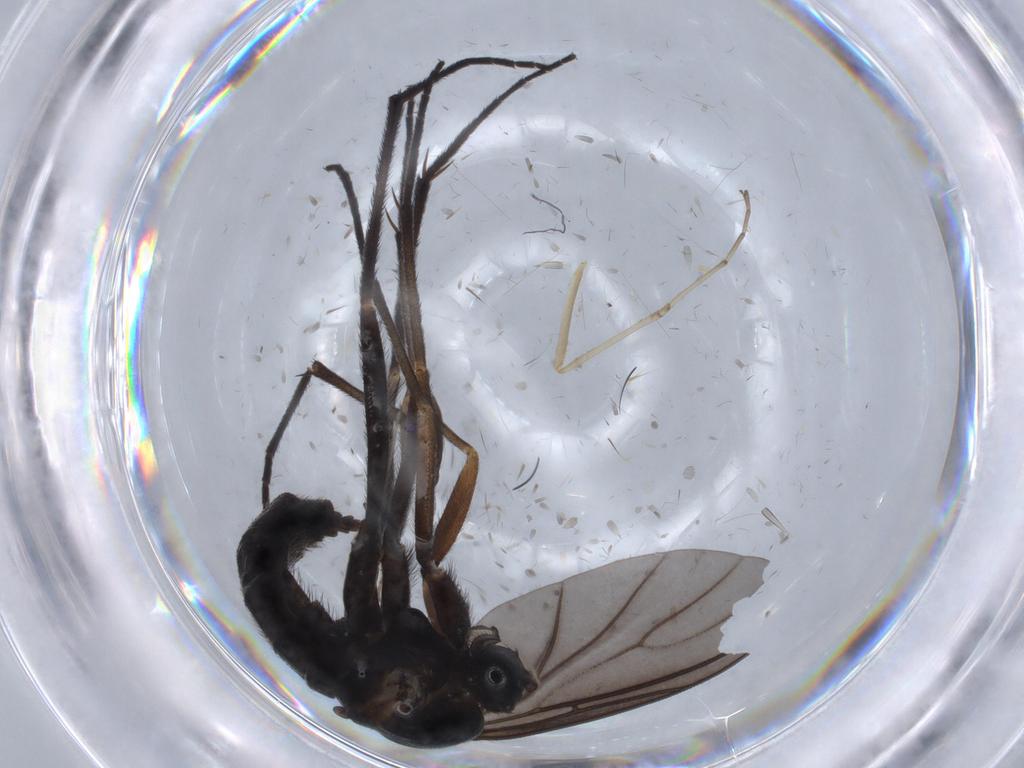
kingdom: Animalia
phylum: Arthropoda
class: Insecta
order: Diptera
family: Sciaridae
